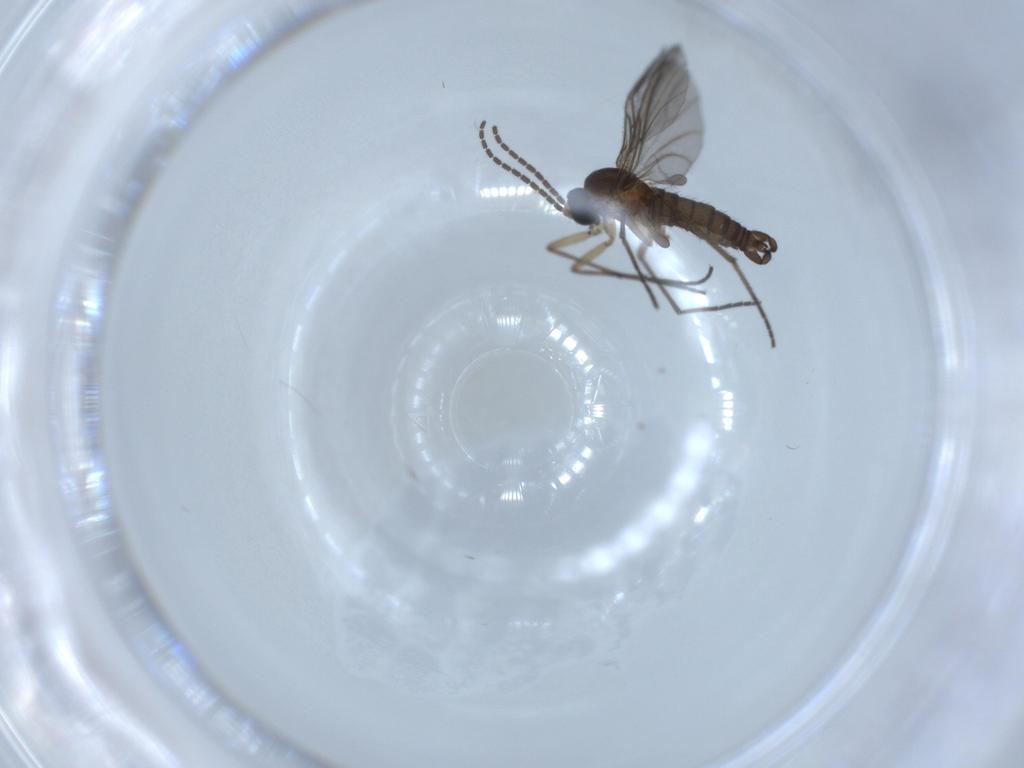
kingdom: Animalia
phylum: Arthropoda
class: Insecta
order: Diptera
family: Sciaridae
